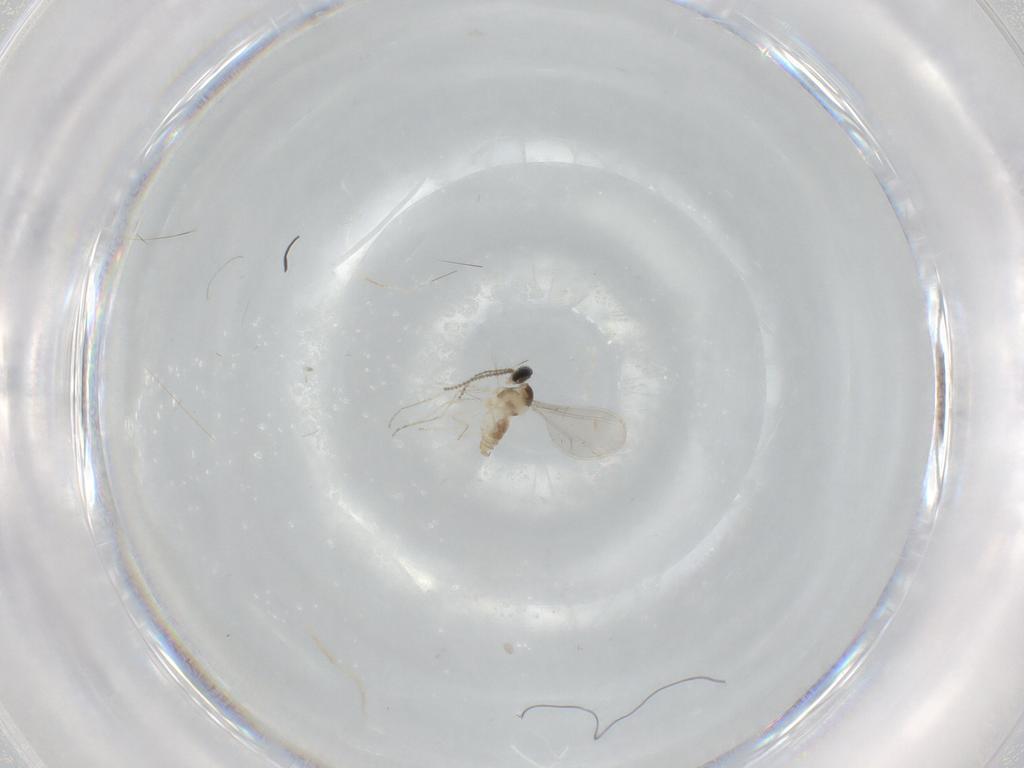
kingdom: Animalia
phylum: Arthropoda
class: Insecta
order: Diptera
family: Cecidomyiidae
